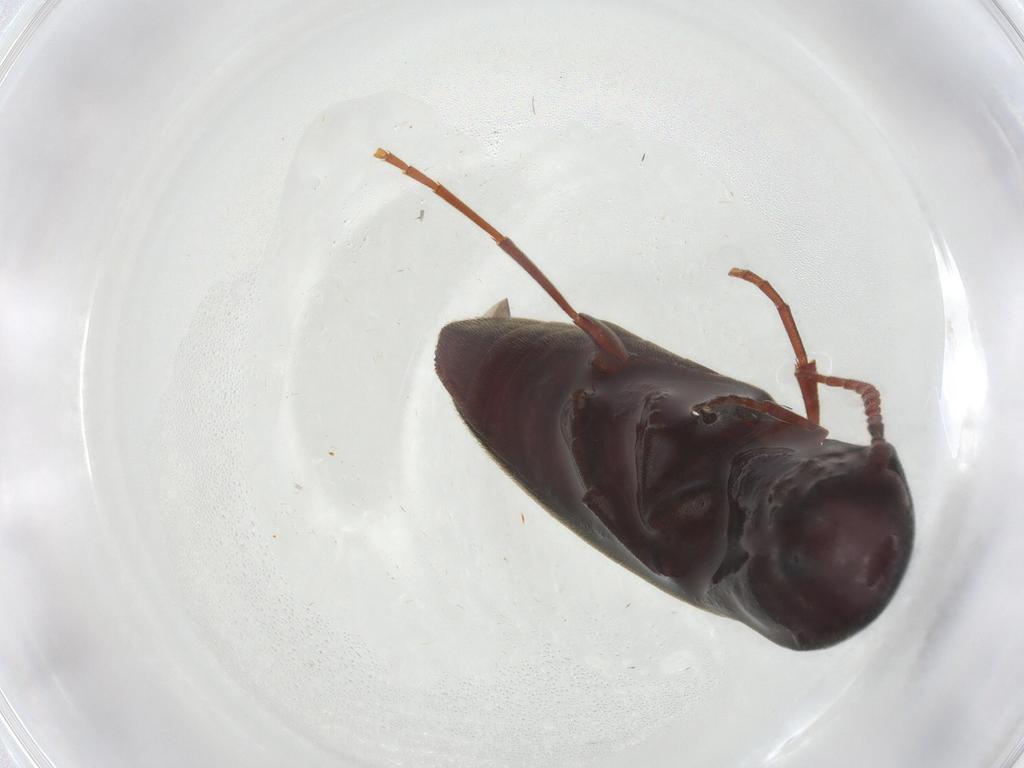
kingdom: Animalia
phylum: Arthropoda
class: Insecta
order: Coleoptera
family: Eucnemidae
